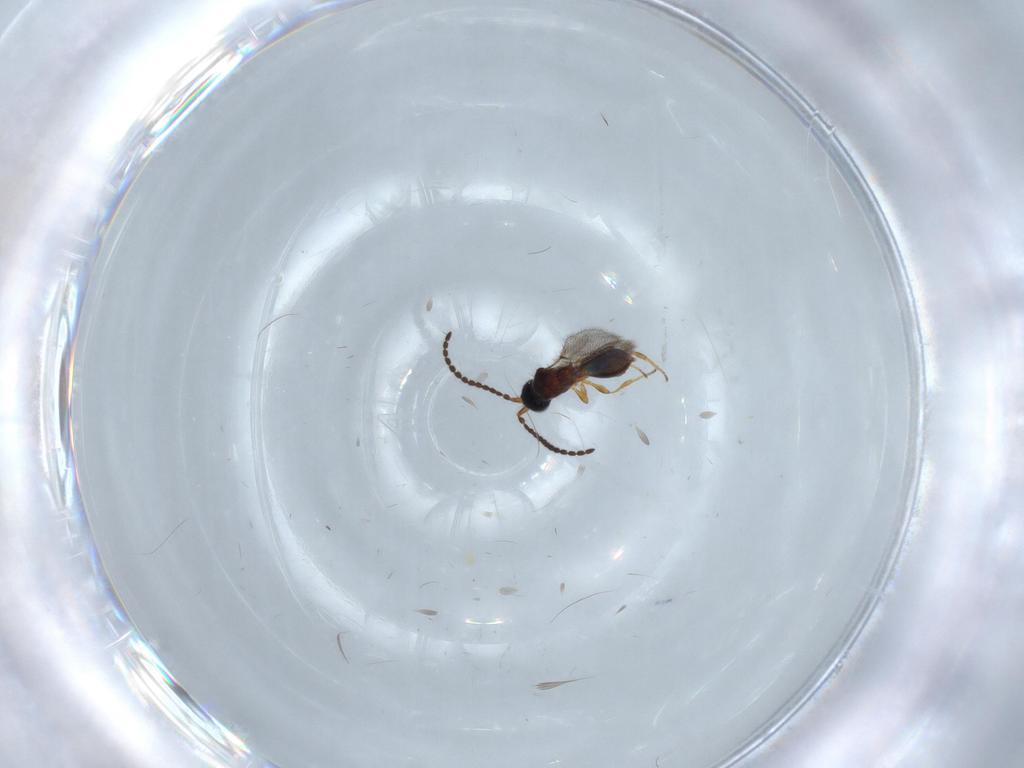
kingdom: Animalia
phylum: Arthropoda
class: Insecta
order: Hymenoptera
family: Diapriidae
